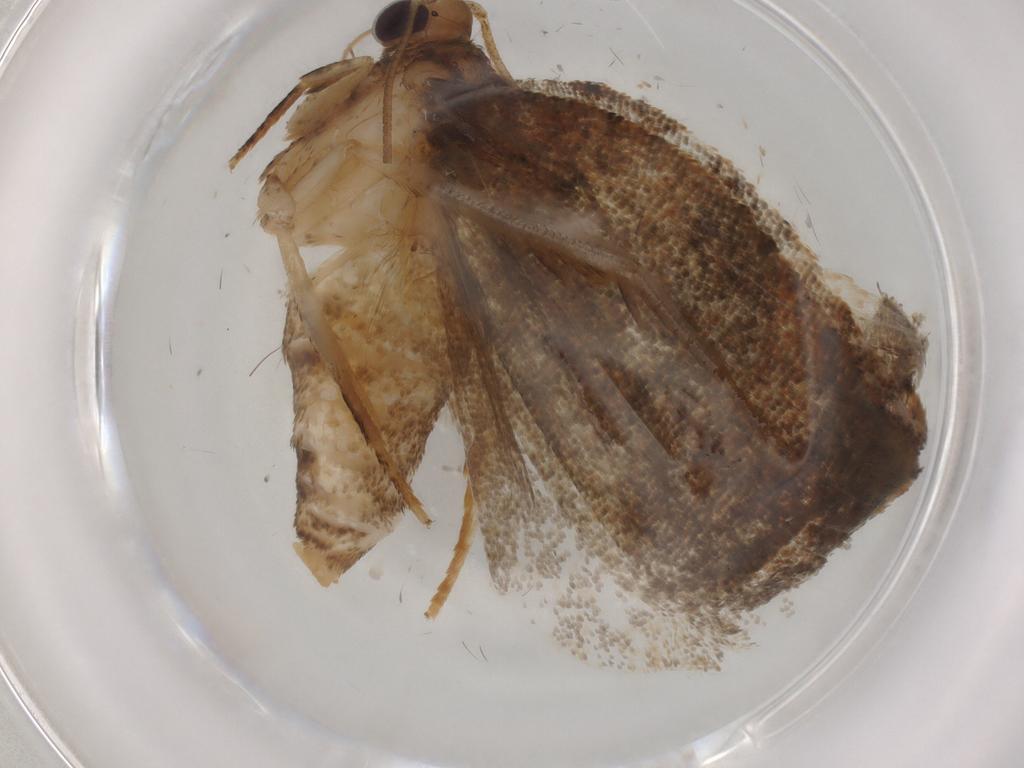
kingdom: Animalia
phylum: Arthropoda
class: Insecta
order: Lepidoptera
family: Tortricidae
